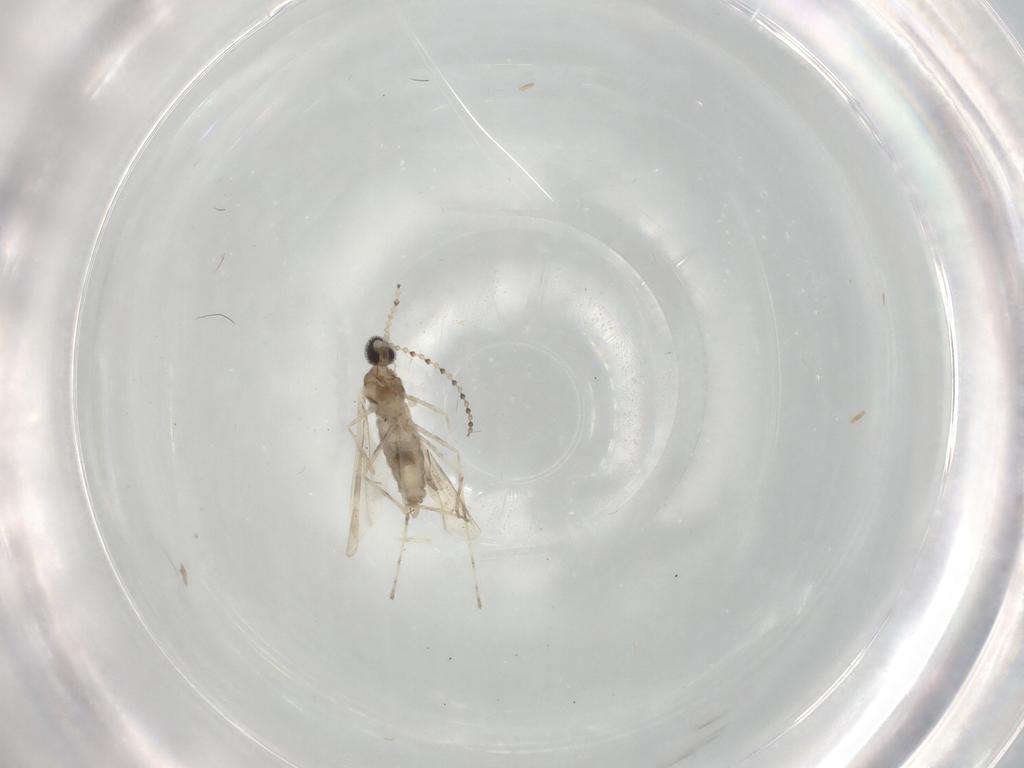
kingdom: Animalia
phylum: Arthropoda
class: Insecta
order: Diptera
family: Cecidomyiidae
